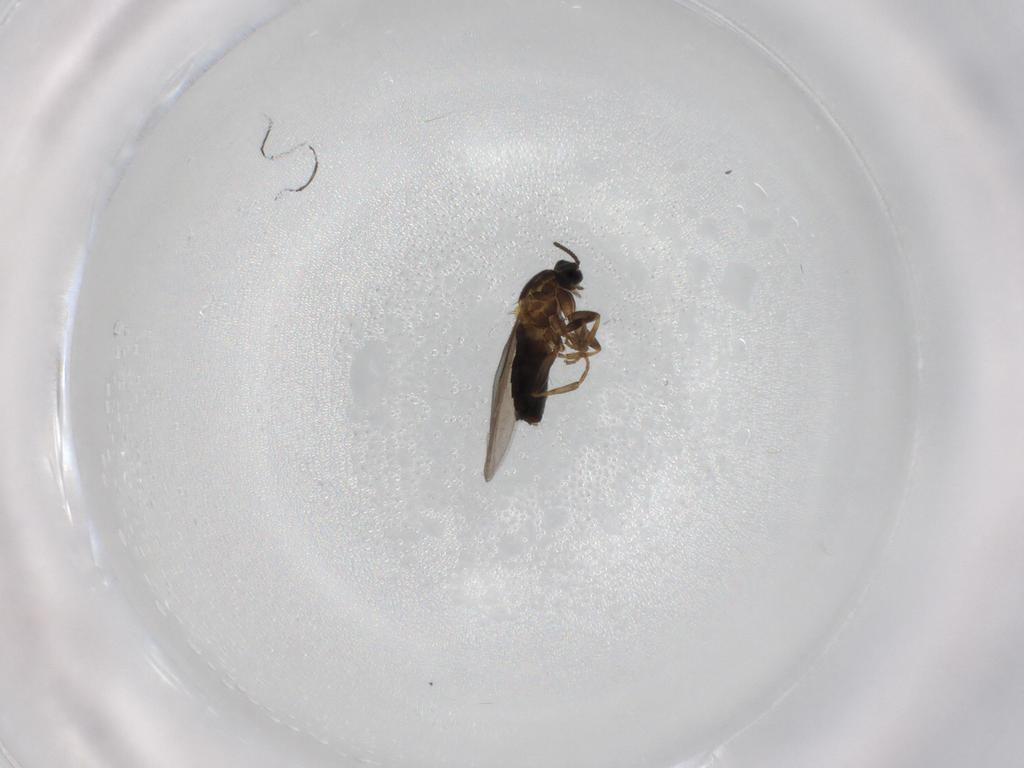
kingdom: Animalia
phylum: Arthropoda
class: Insecta
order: Diptera
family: Scatopsidae
